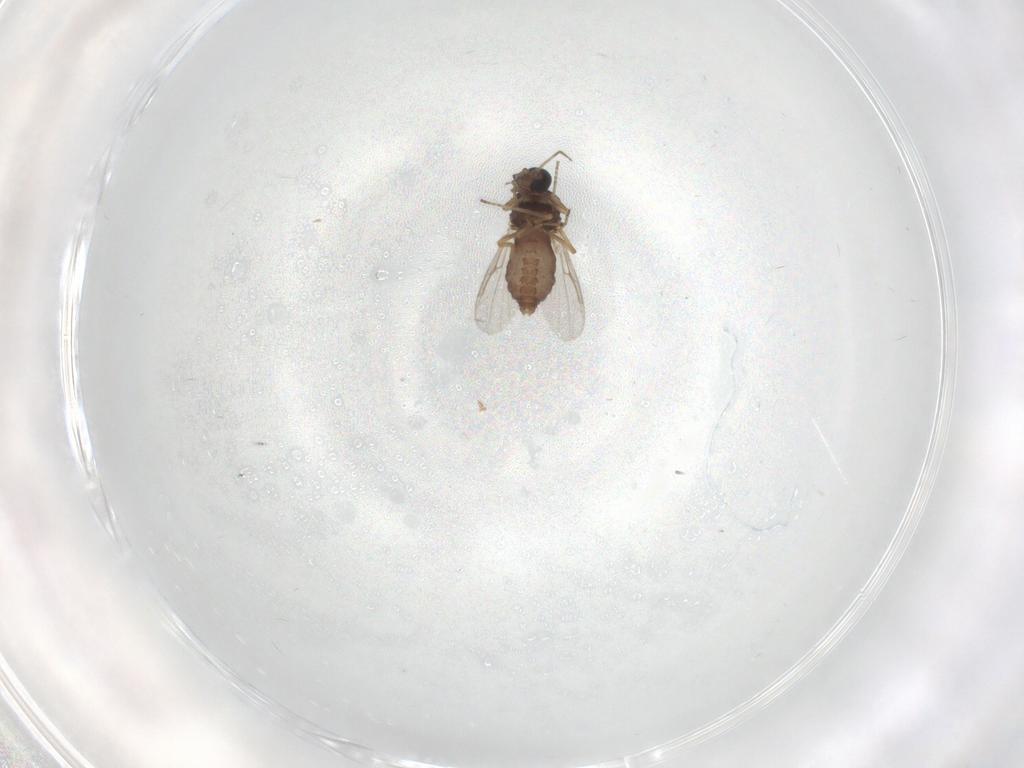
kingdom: Animalia
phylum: Arthropoda
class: Insecta
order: Diptera
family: Ceratopogonidae
